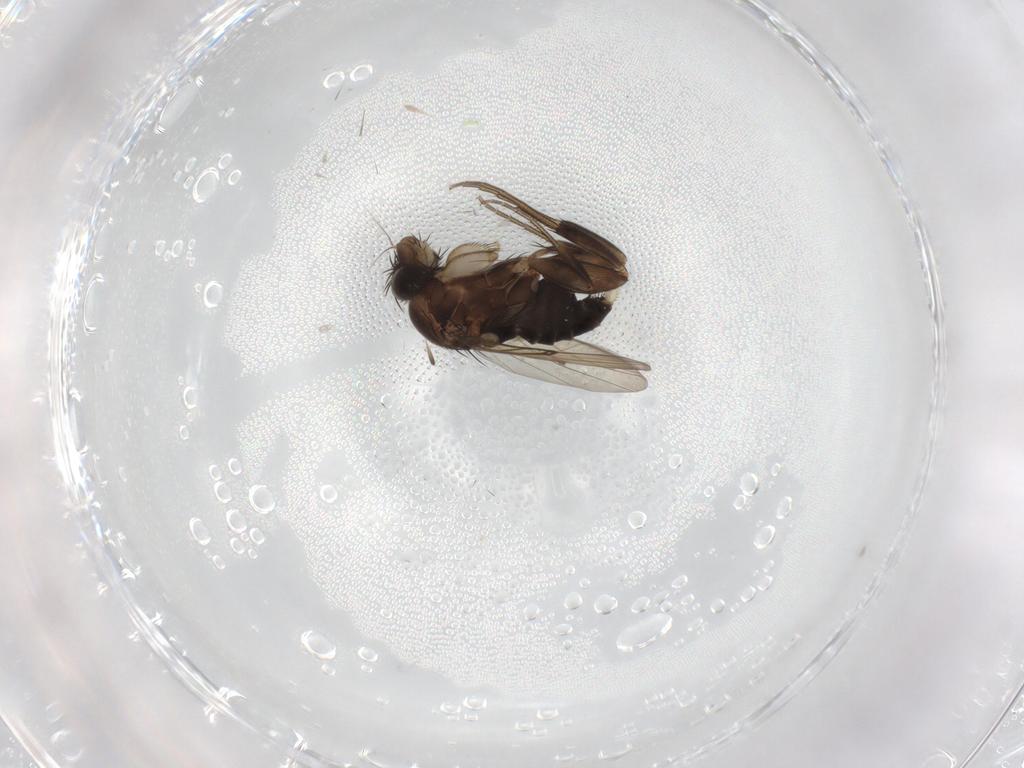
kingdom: Animalia
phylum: Arthropoda
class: Insecta
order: Diptera
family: Phoridae
